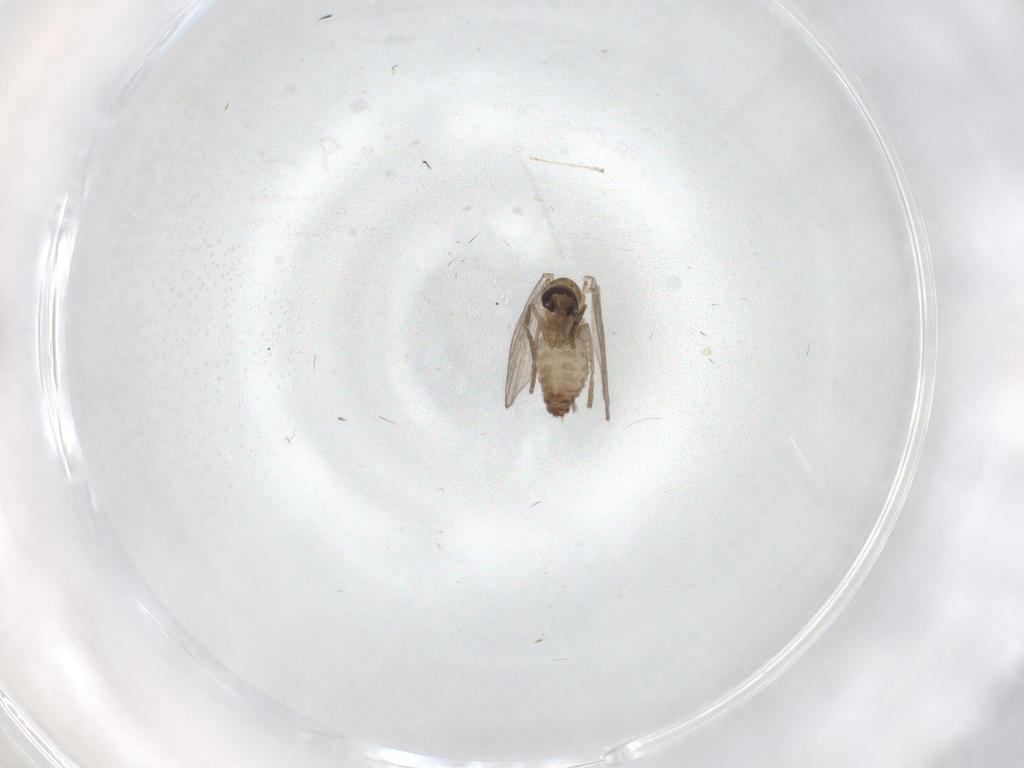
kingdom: Animalia
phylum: Arthropoda
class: Insecta
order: Diptera
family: Psychodidae
